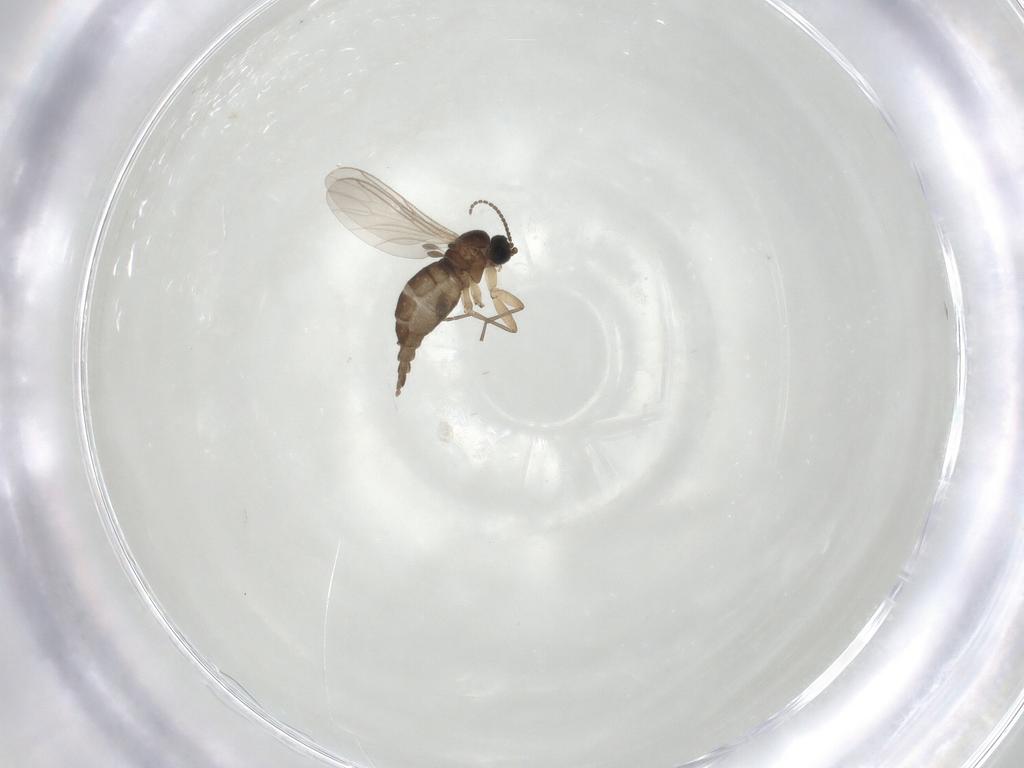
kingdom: Animalia
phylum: Arthropoda
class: Insecta
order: Diptera
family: Sciaridae
